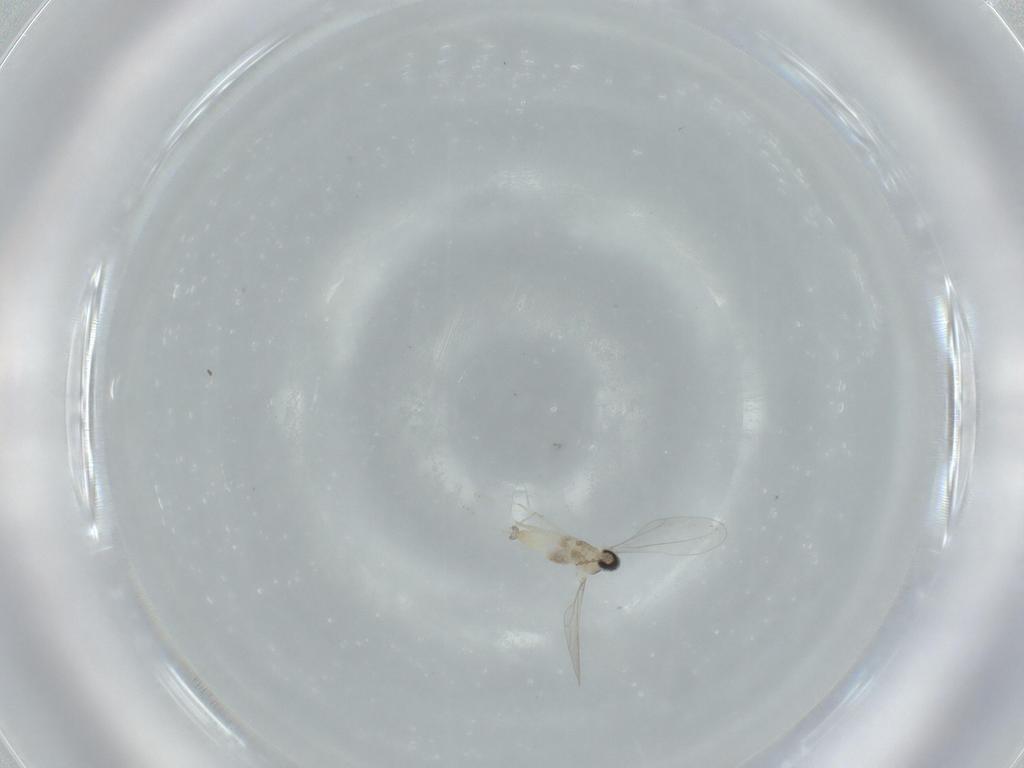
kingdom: Animalia
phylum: Arthropoda
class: Insecta
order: Diptera
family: Cecidomyiidae
